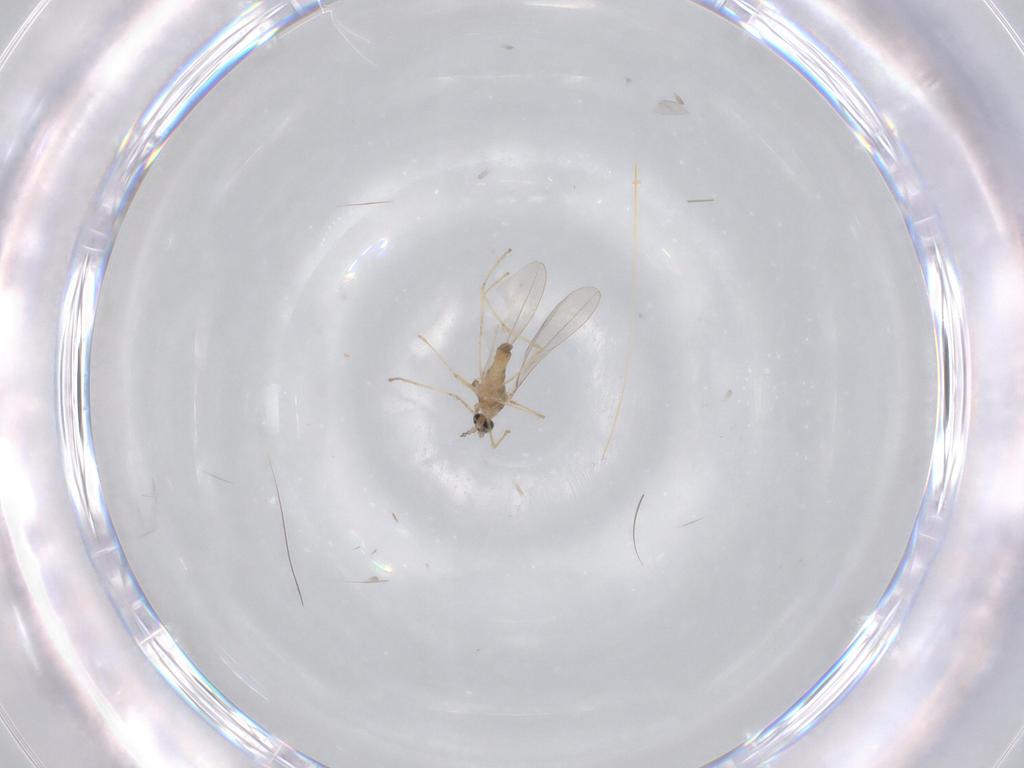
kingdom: Animalia
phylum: Arthropoda
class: Insecta
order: Diptera
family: Cecidomyiidae
